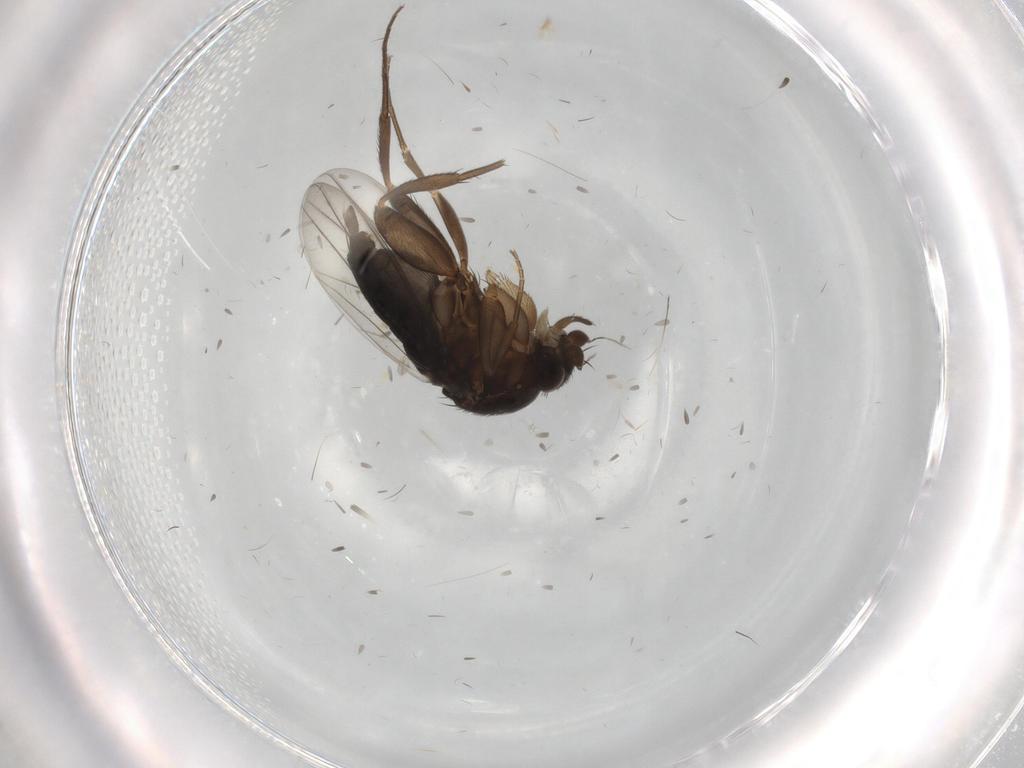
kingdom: Animalia
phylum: Arthropoda
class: Insecta
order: Diptera
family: Phoridae
